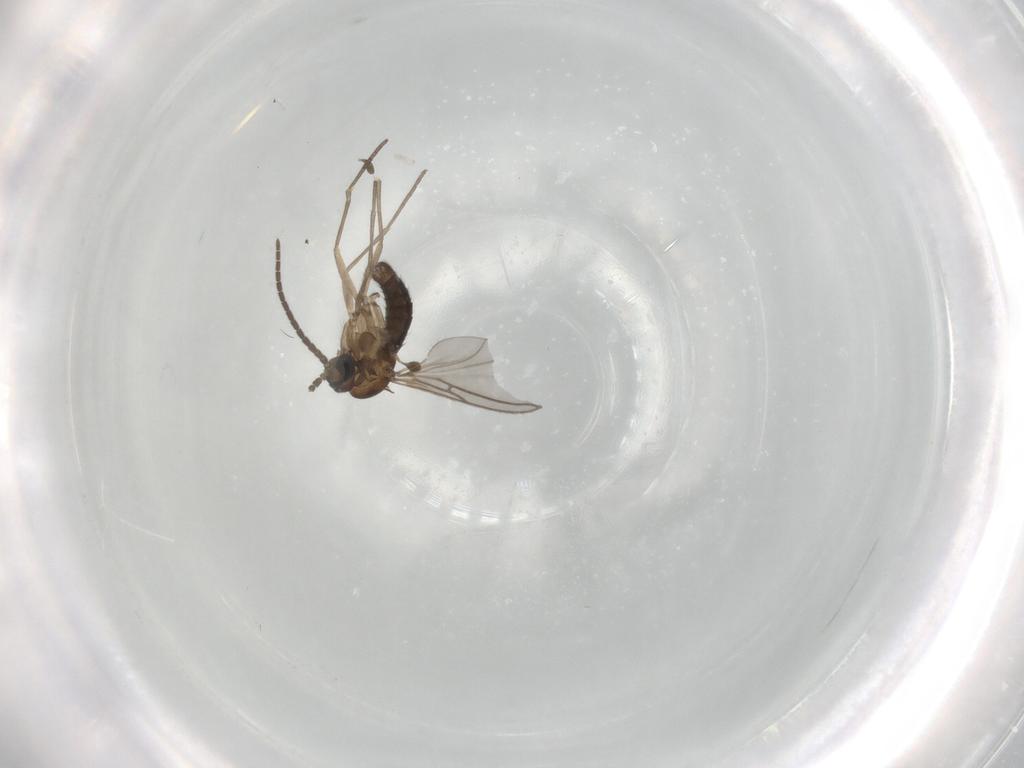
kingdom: Animalia
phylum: Arthropoda
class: Insecta
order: Diptera
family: Sciaridae
